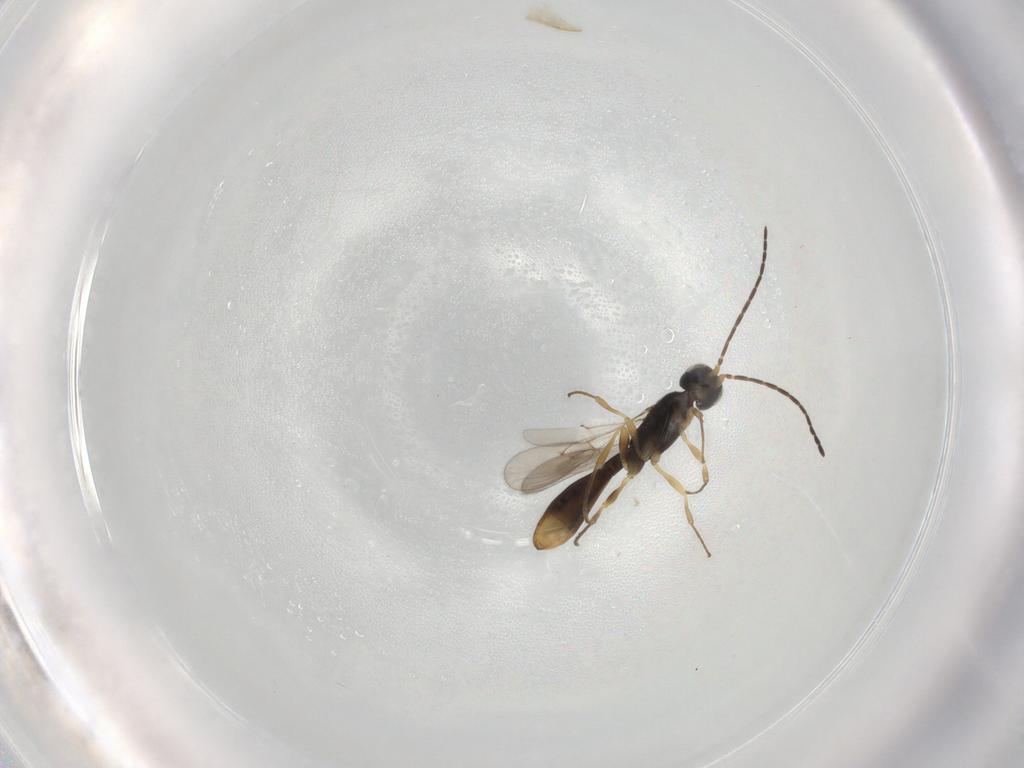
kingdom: Animalia
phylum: Arthropoda
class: Insecta
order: Hymenoptera
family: Scelionidae
